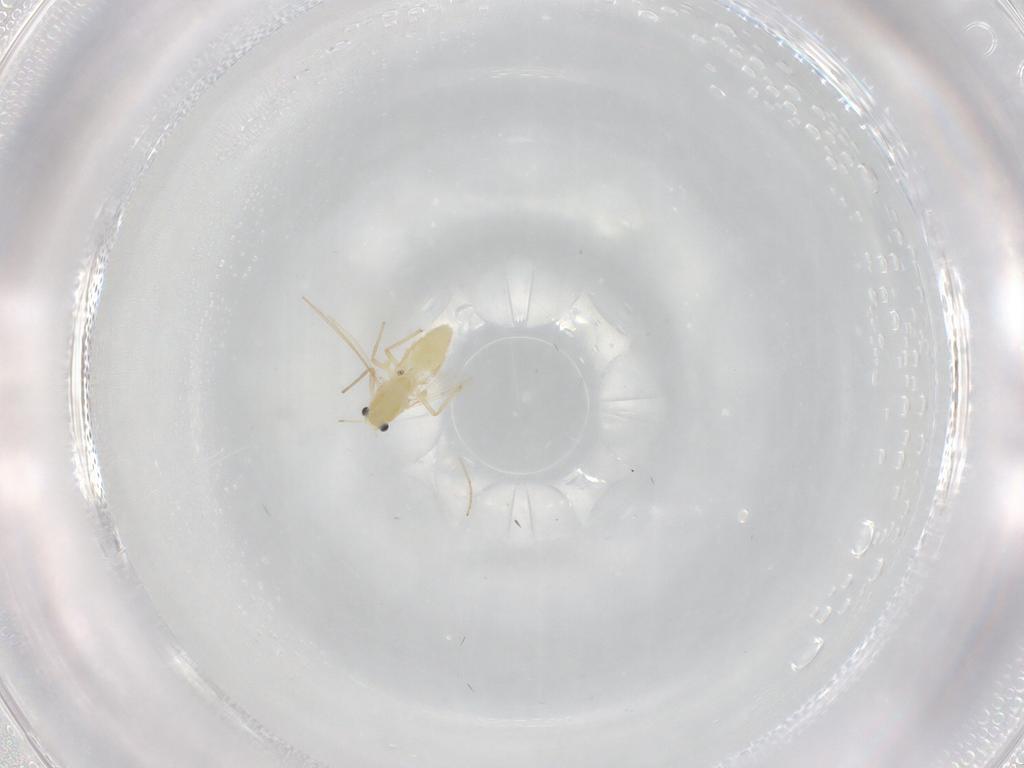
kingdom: Animalia
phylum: Arthropoda
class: Insecta
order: Diptera
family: Chironomidae
